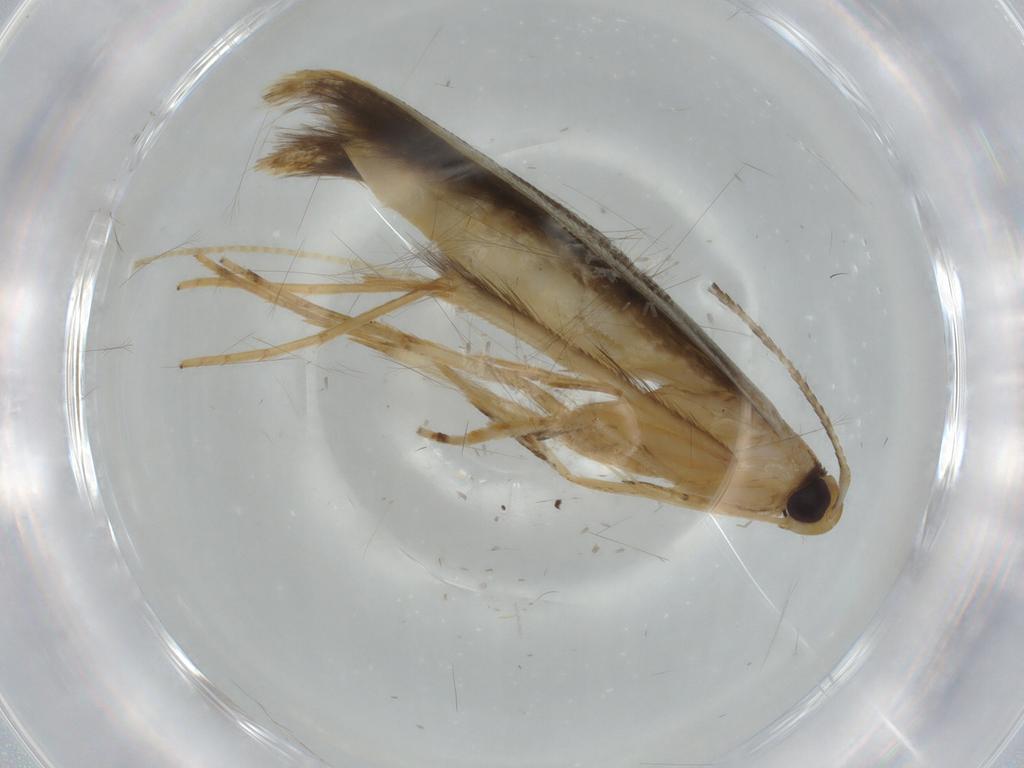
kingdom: Animalia
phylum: Arthropoda
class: Insecta
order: Lepidoptera
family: Pterolonchidae
